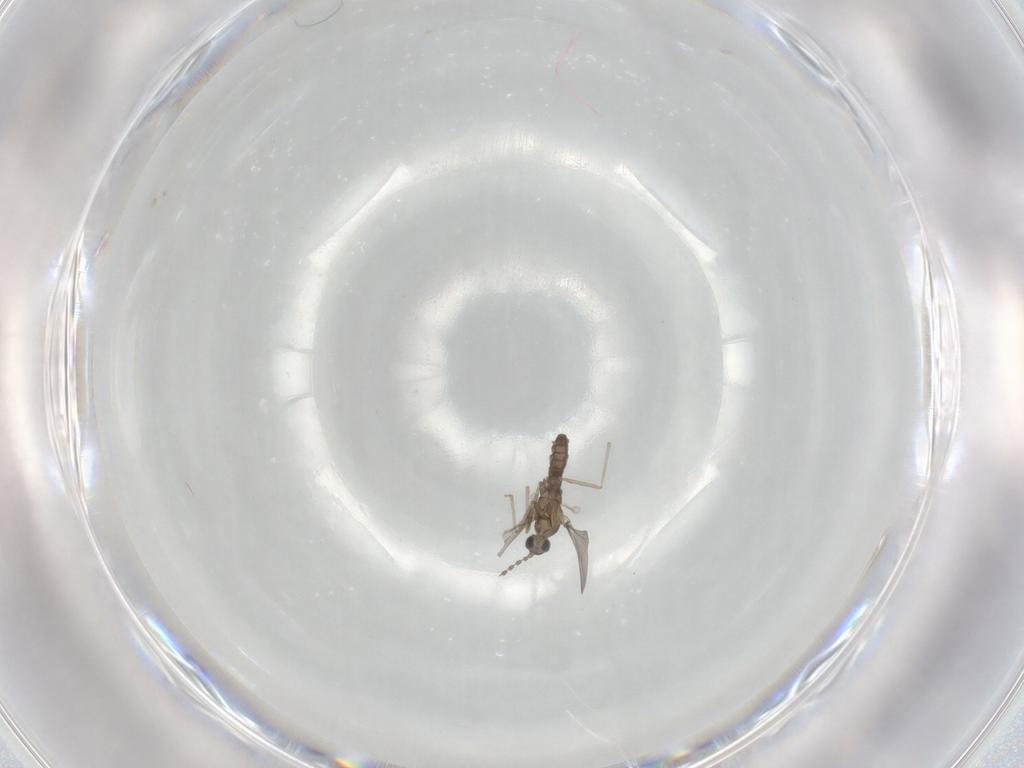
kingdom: Animalia
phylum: Arthropoda
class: Insecta
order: Diptera
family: Cecidomyiidae
